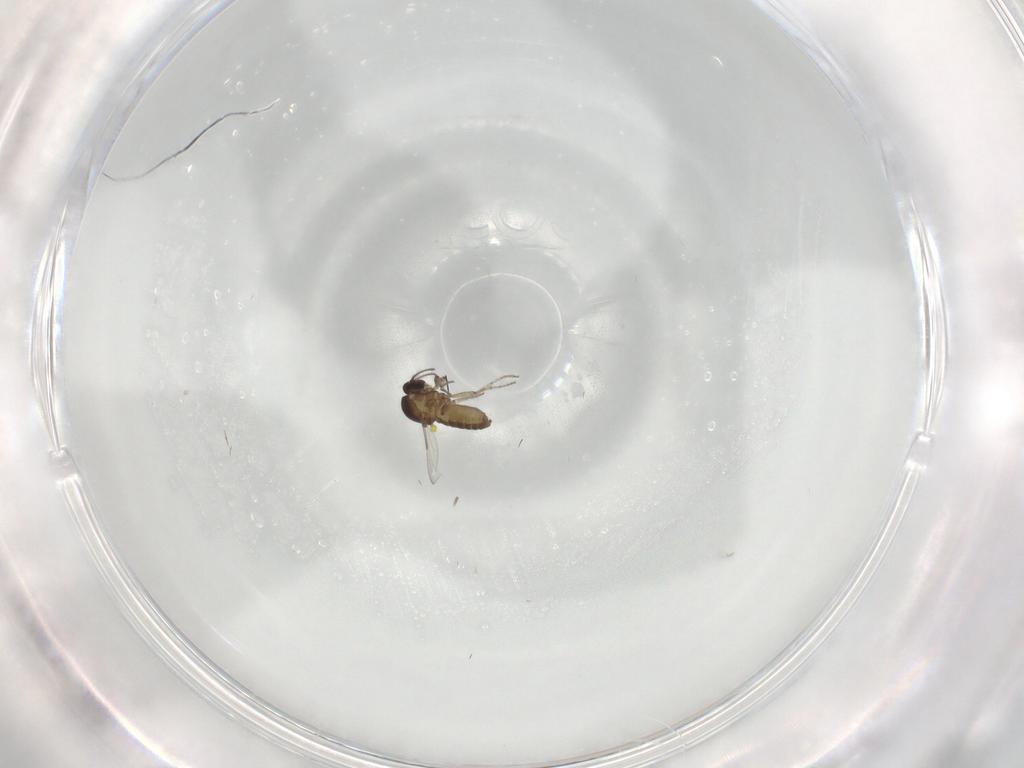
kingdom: Animalia
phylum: Arthropoda
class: Insecta
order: Diptera
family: Ceratopogonidae
